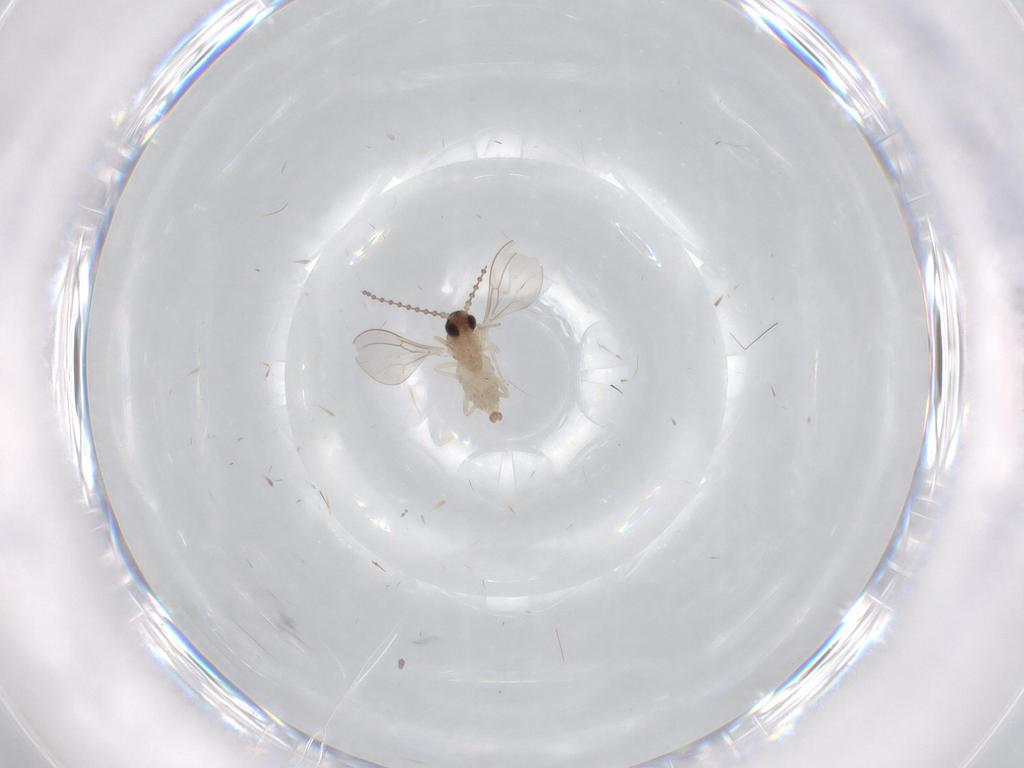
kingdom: Animalia
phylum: Arthropoda
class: Insecta
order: Diptera
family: Cecidomyiidae
